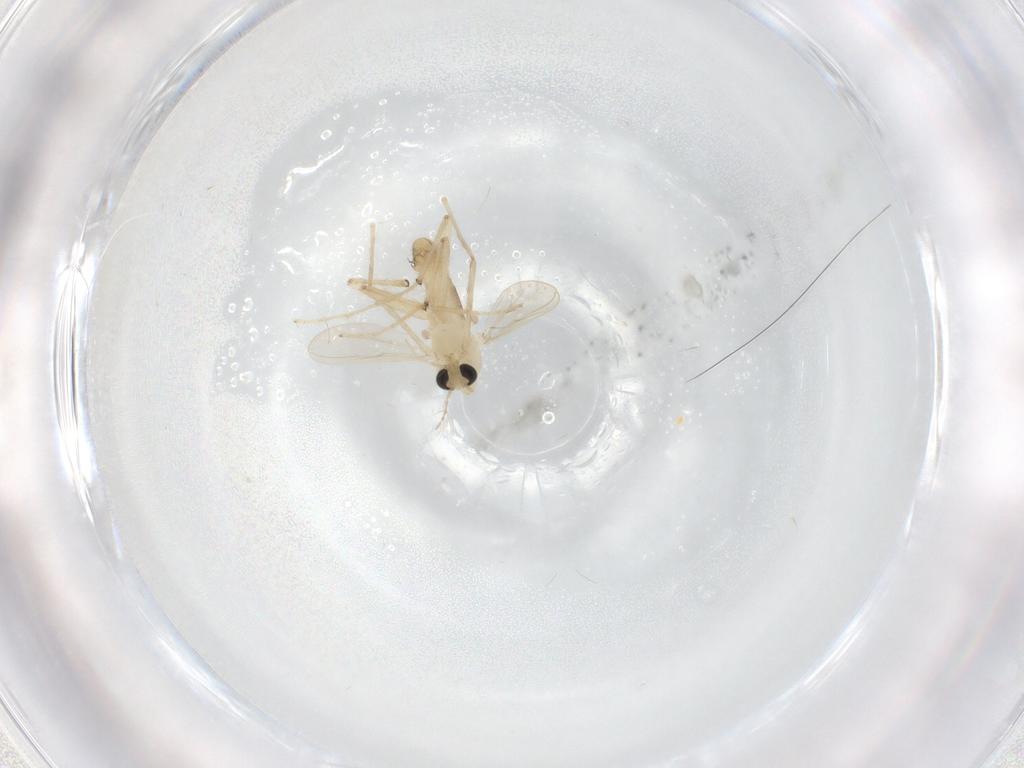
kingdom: Animalia
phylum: Arthropoda
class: Insecta
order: Diptera
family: Chironomidae
